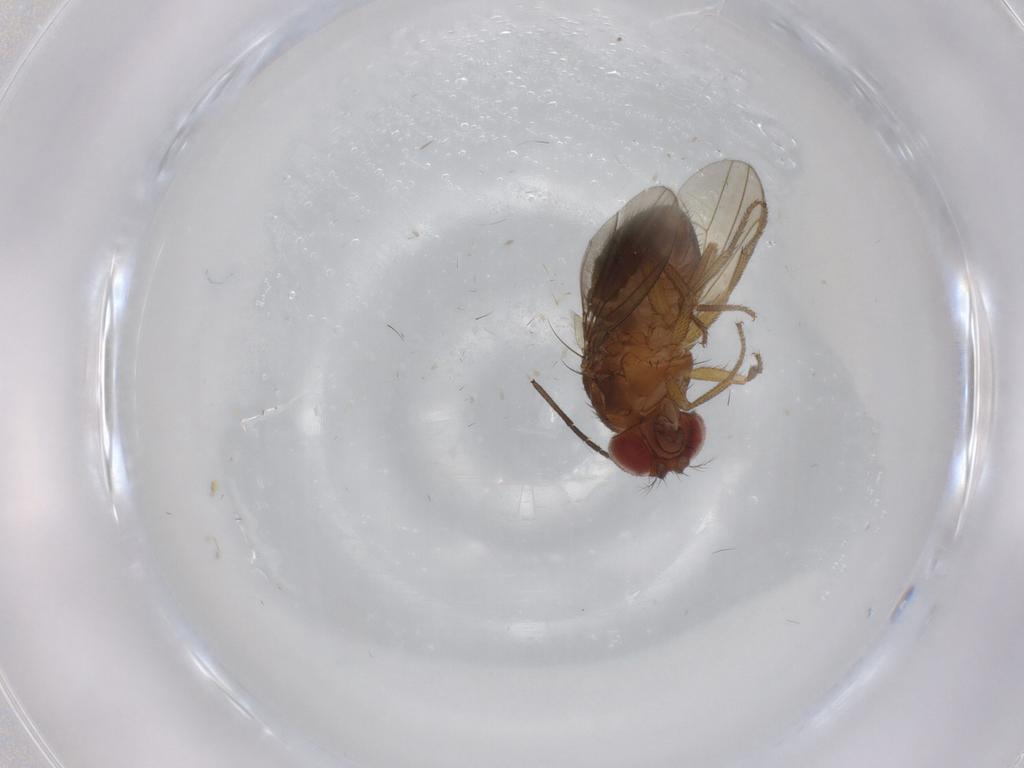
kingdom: Animalia
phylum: Arthropoda
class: Insecta
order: Diptera
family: Drosophilidae
